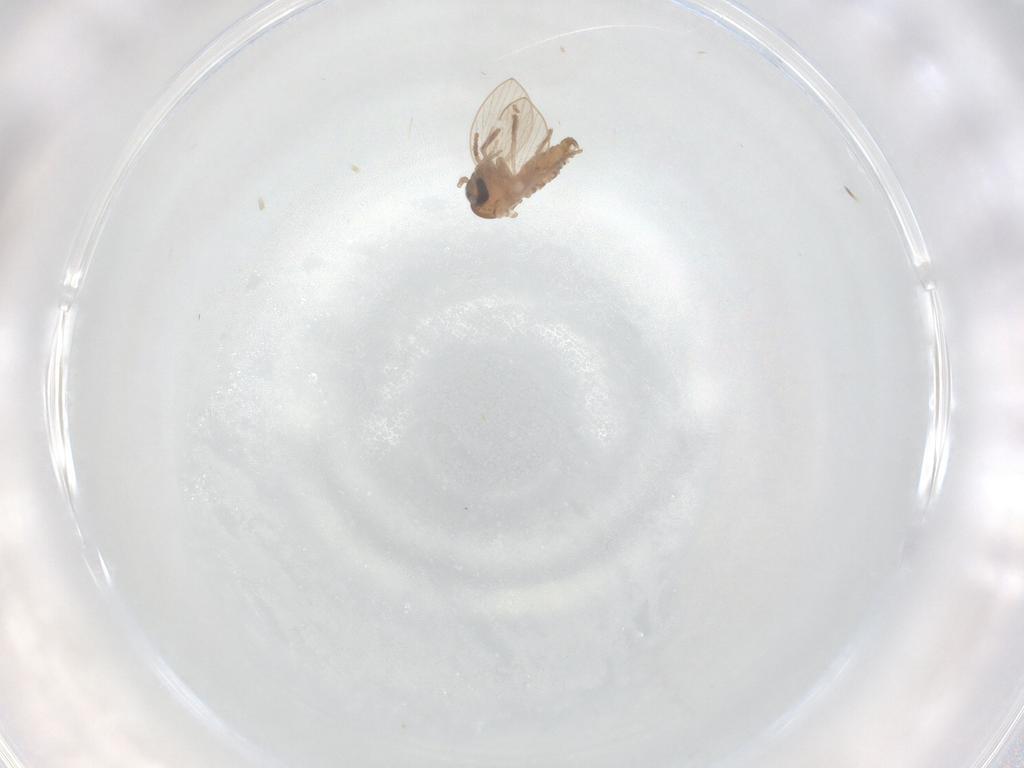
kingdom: Animalia
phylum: Arthropoda
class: Insecta
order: Diptera
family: Psychodidae
